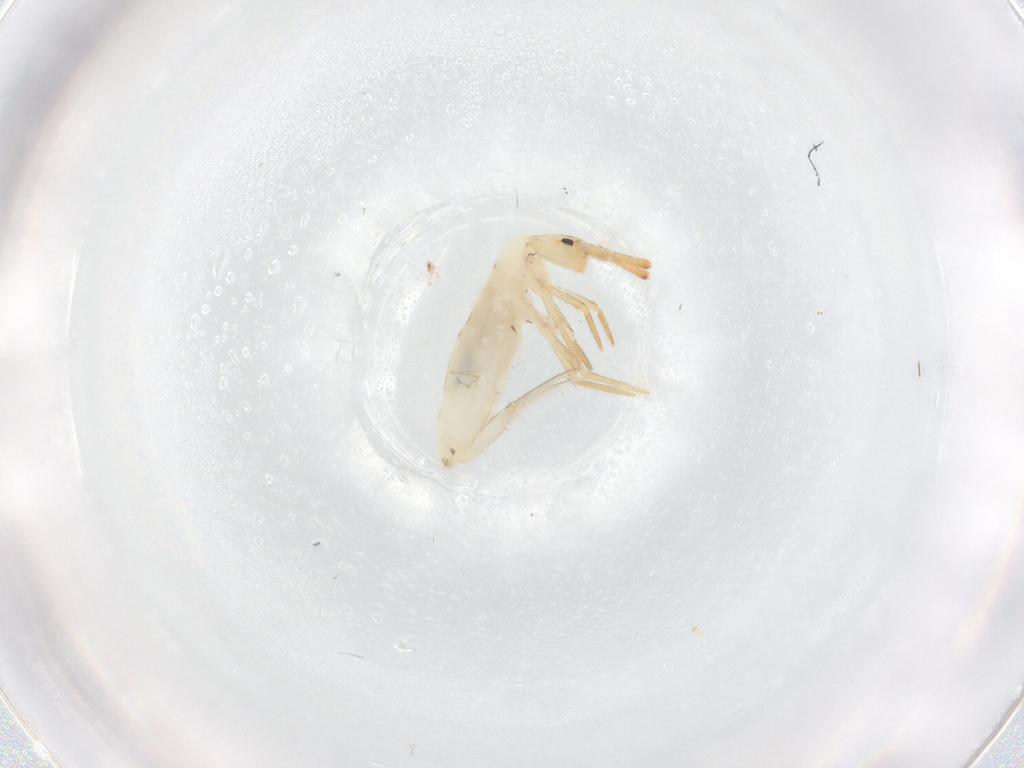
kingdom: Animalia
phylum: Arthropoda
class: Collembola
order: Entomobryomorpha
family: Entomobryidae
